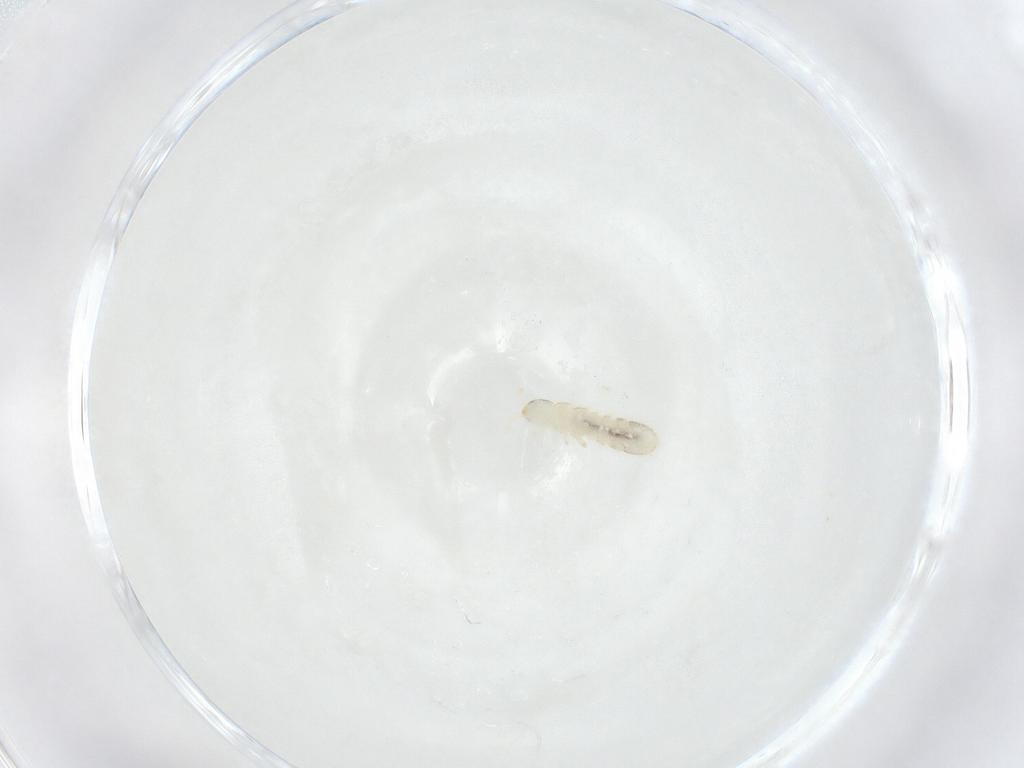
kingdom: Animalia
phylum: Arthropoda
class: Collembola
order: Entomobryomorpha
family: Isotomidae
